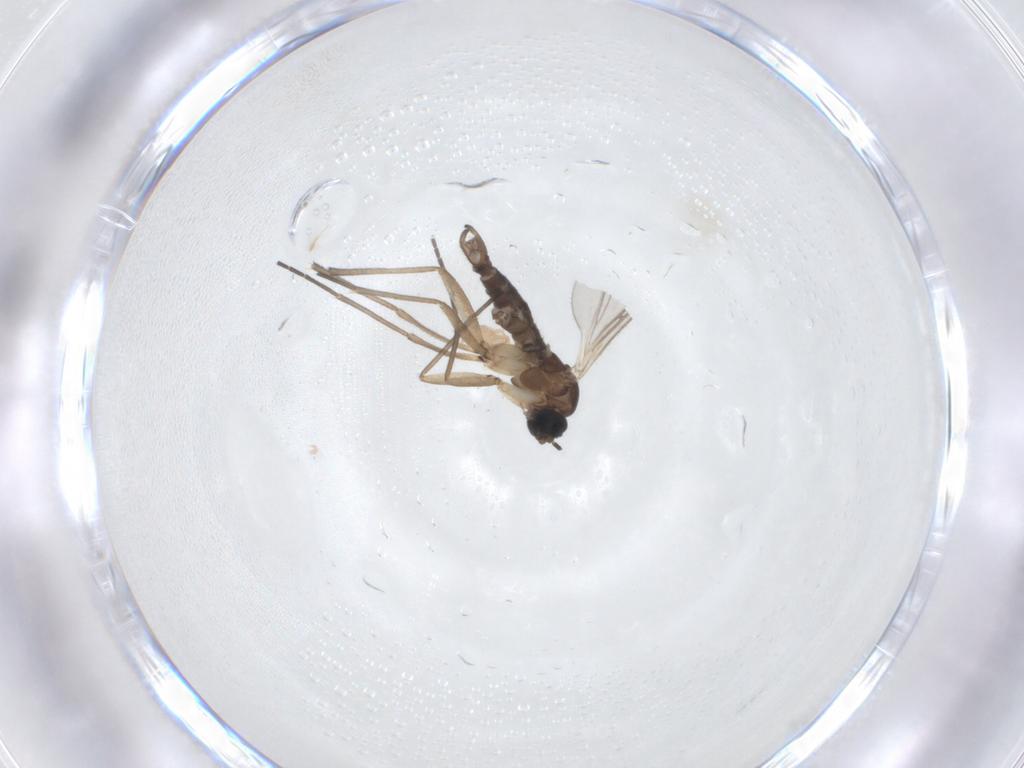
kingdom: Animalia
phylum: Arthropoda
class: Insecta
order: Diptera
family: Sciaridae
